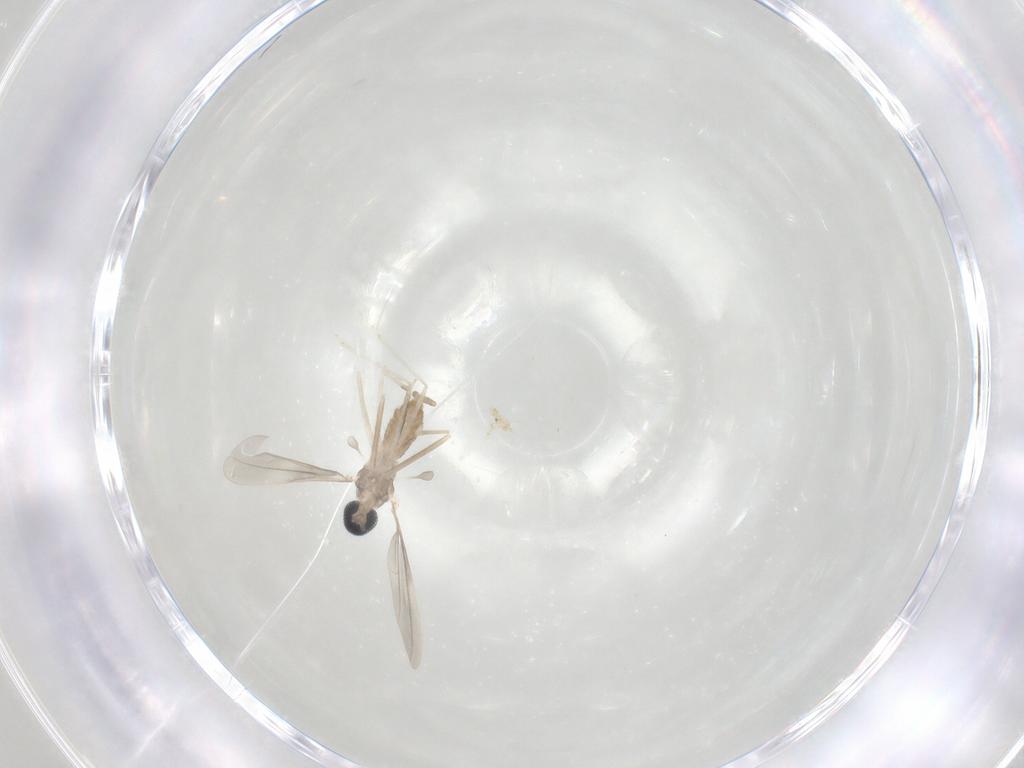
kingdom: Animalia
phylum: Arthropoda
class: Insecta
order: Diptera
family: Cecidomyiidae
